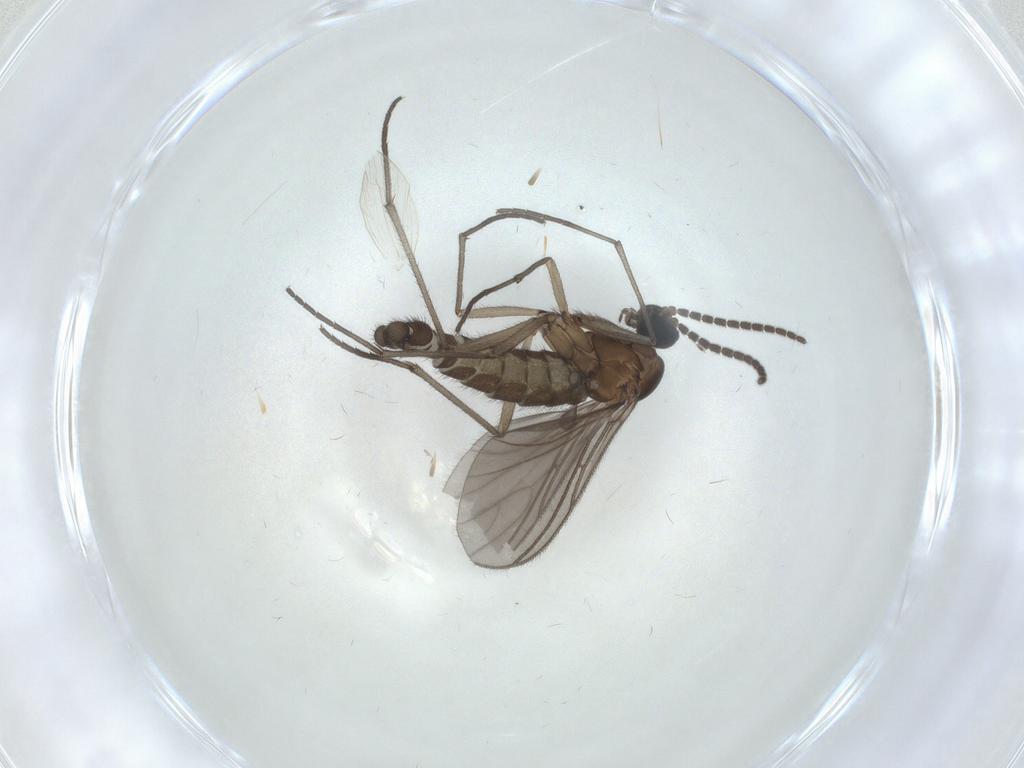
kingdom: Animalia
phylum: Arthropoda
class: Insecta
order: Diptera
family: Sciaridae
